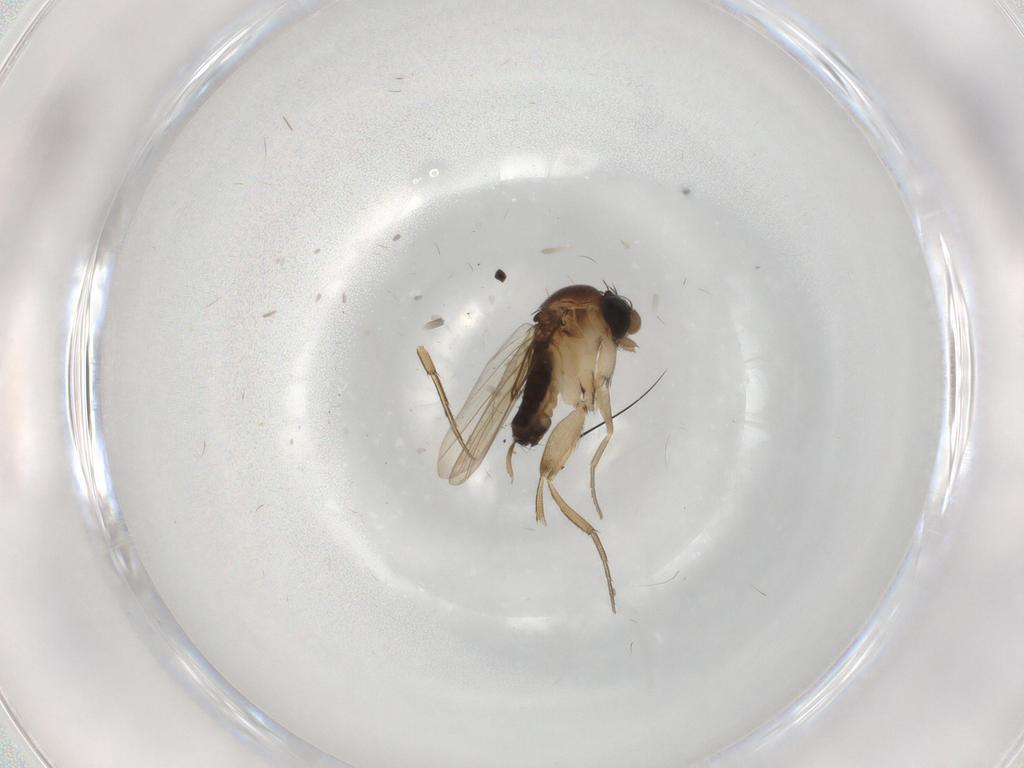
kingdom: Animalia
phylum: Arthropoda
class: Insecta
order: Diptera
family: Phoridae
